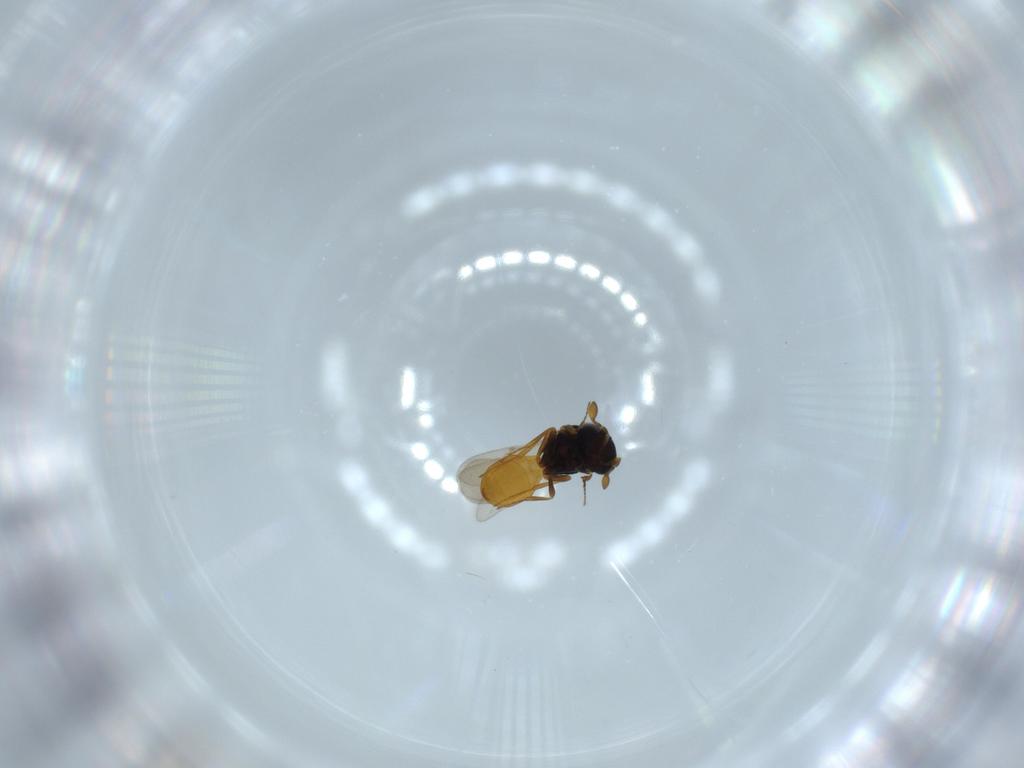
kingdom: Animalia
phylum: Arthropoda
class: Insecta
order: Hymenoptera
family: Scelionidae
